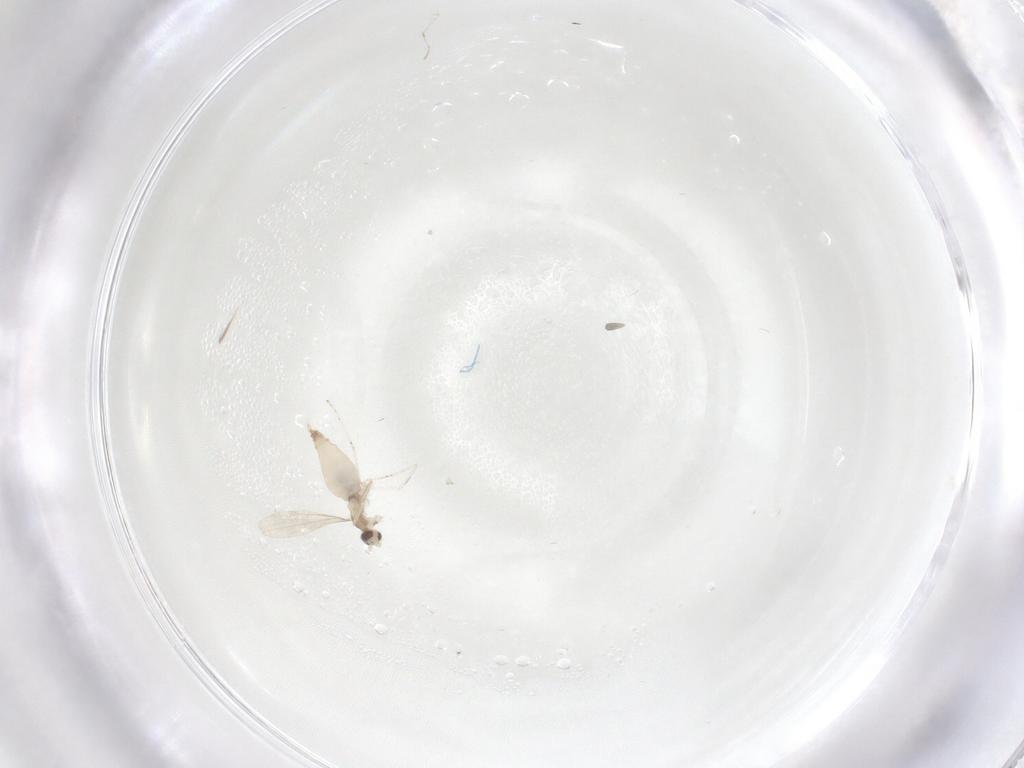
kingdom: Animalia
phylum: Arthropoda
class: Insecta
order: Diptera
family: Cecidomyiidae
